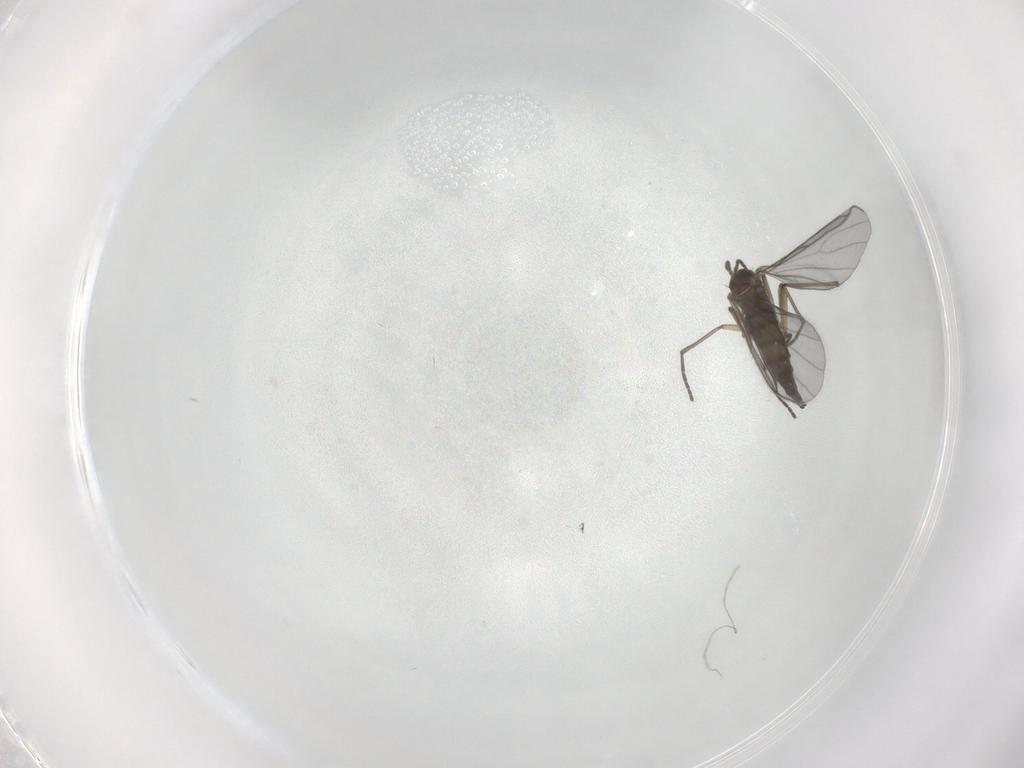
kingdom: Animalia
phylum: Arthropoda
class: Insecta
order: Diptera
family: Sciaridae
